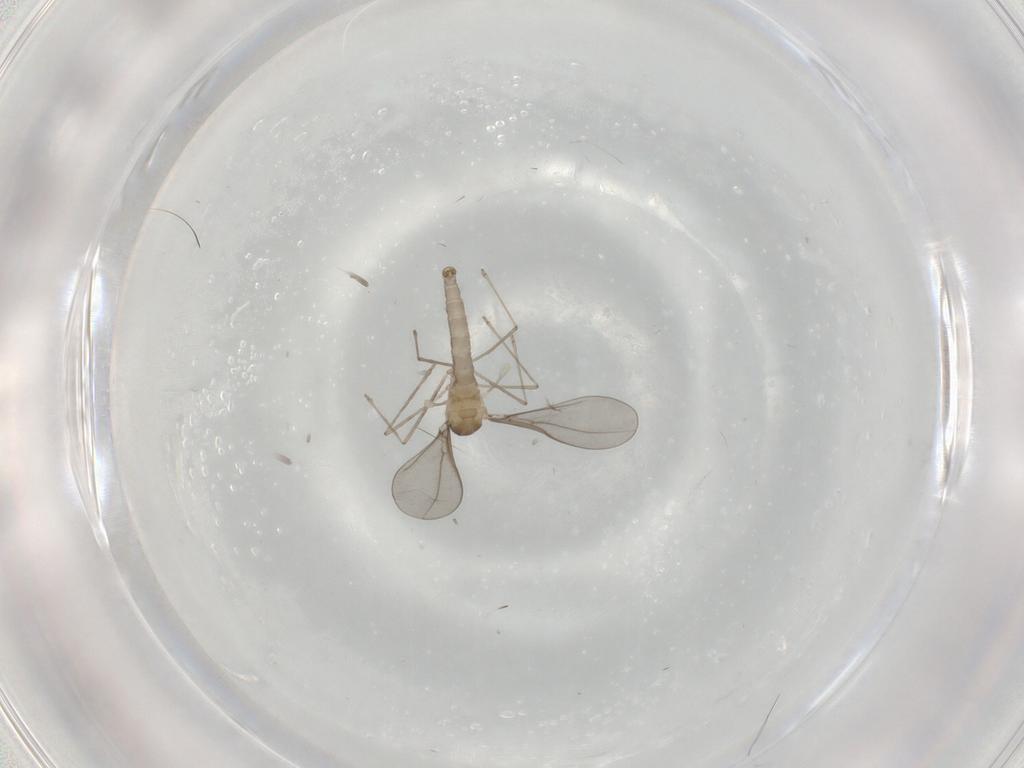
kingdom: Animalia
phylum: Arthropoda
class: Insecta
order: Diptera
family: Cecidomyiidae
